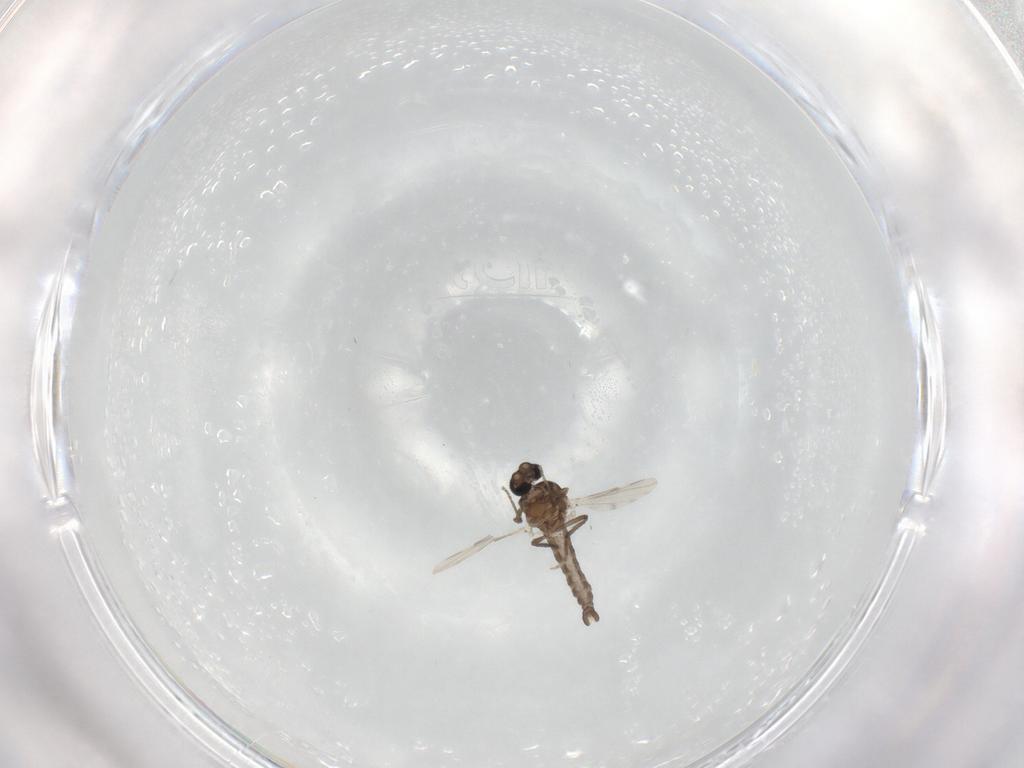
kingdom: Animalia
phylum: Arthropoda
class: Insecta
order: Diptera
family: Ceratopogonidae
